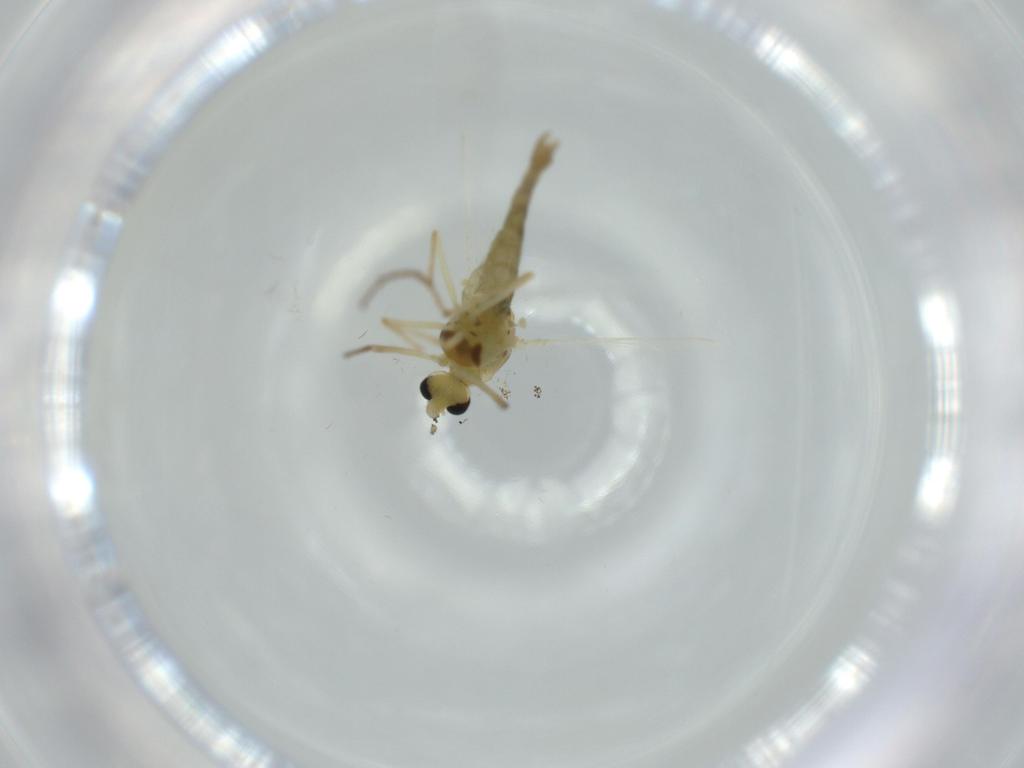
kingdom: Animalia
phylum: Arthropoda
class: Insecta
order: Diptera
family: Chironomidae
